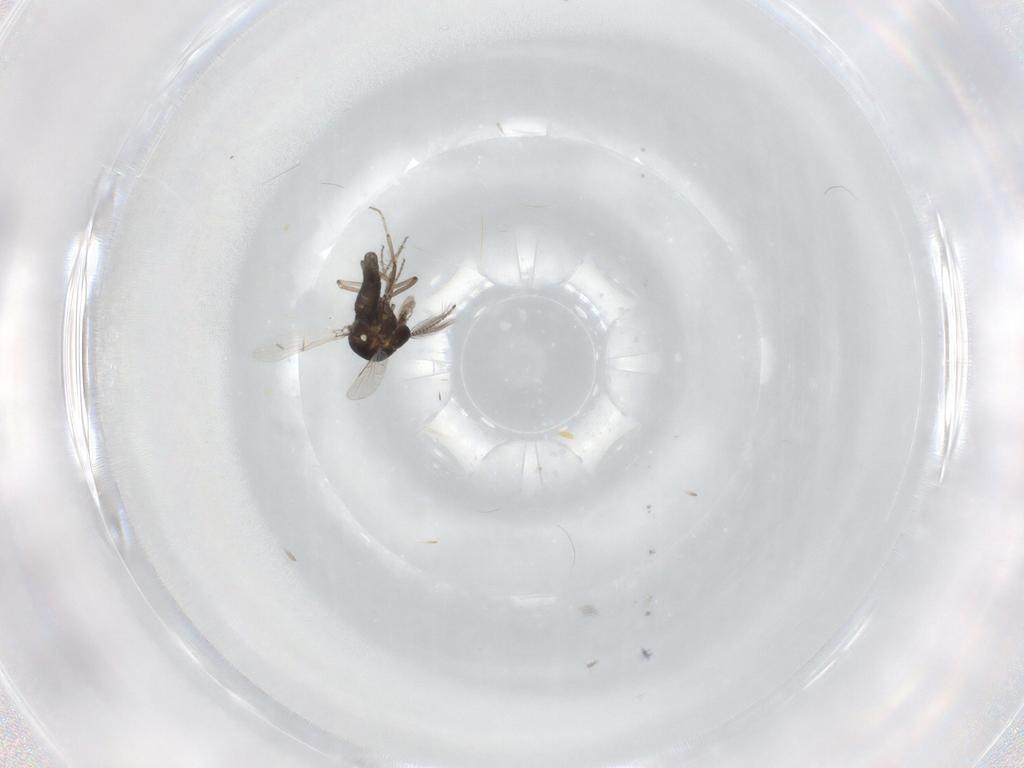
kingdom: Animalia
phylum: Arthropoda
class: Insecta
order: Diptera
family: Ceratopogonidae
